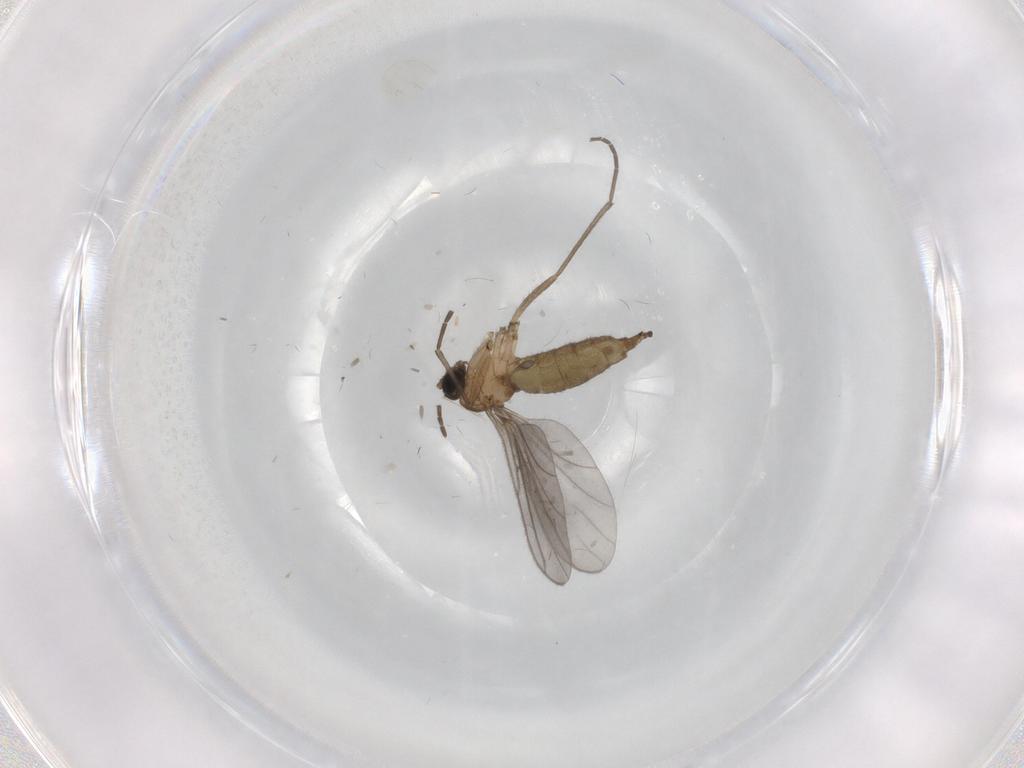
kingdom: Animalia
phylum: Arthropoda
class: Insecta
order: Diptera
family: Sciaridae
